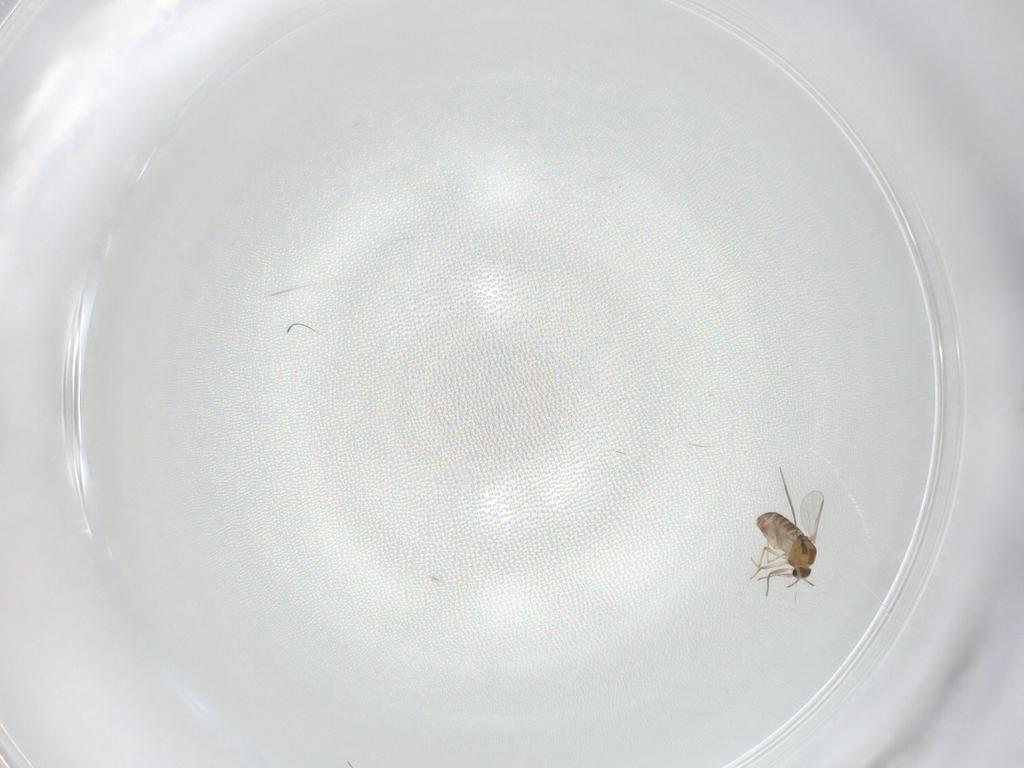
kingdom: Animalia
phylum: Arthropoda
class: Insecta
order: Diptera
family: Chironomidae
